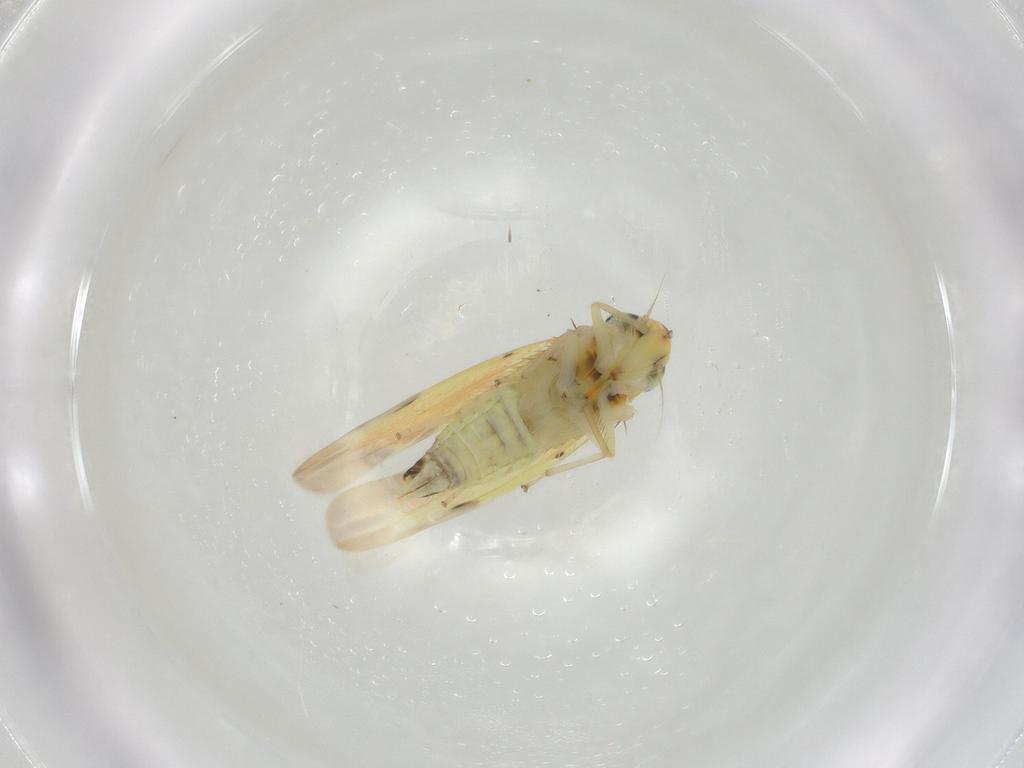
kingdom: Animalia
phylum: Arthropoda
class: Insecta
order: Hemiptera
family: Cicadellidae
